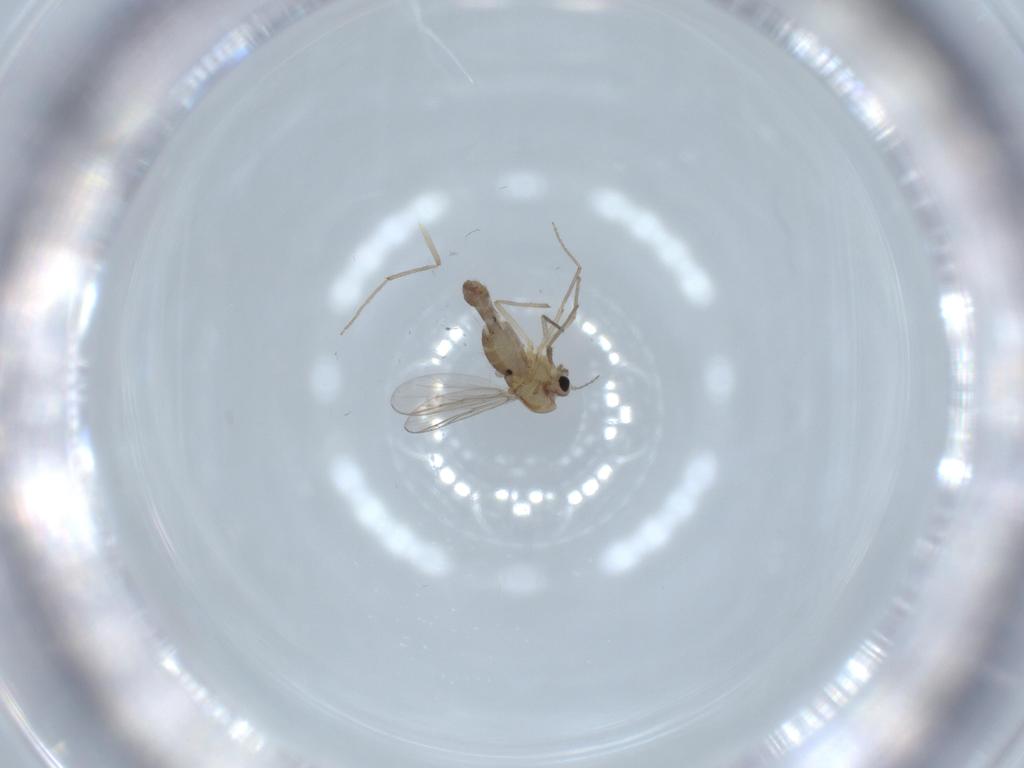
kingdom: Animalia
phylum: Arthropoda
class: Insecta
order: Diptera
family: Chironomidae
